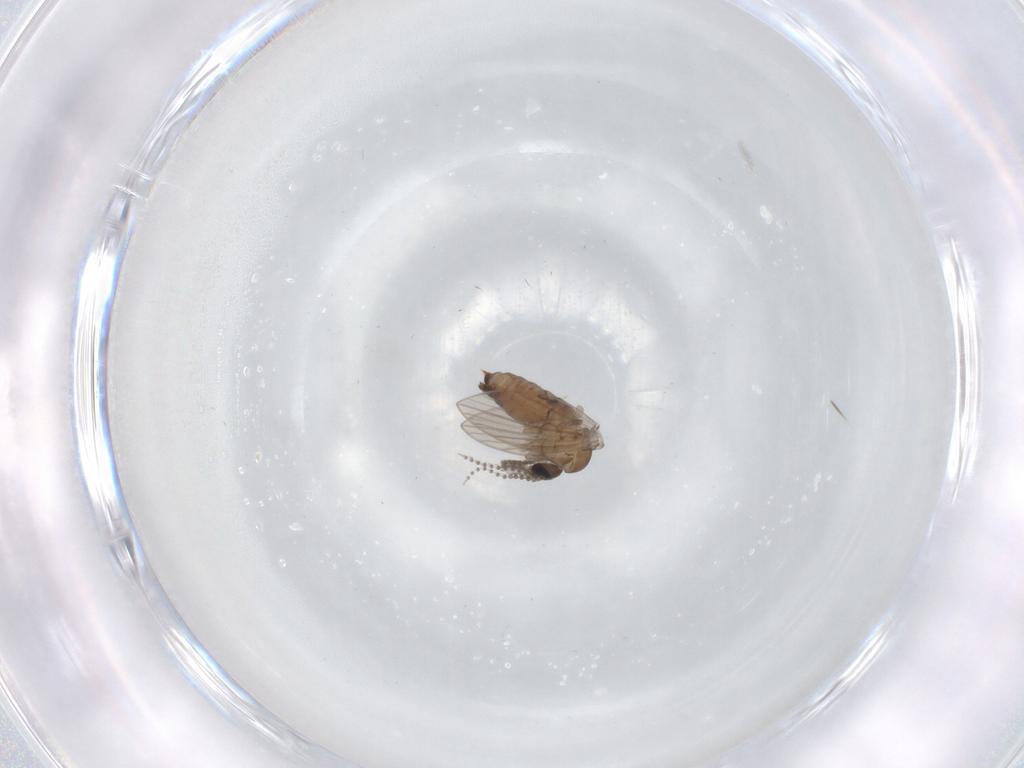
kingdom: Animalia
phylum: Arthropoda
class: Insecta
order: Diptera
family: Psychodidae
